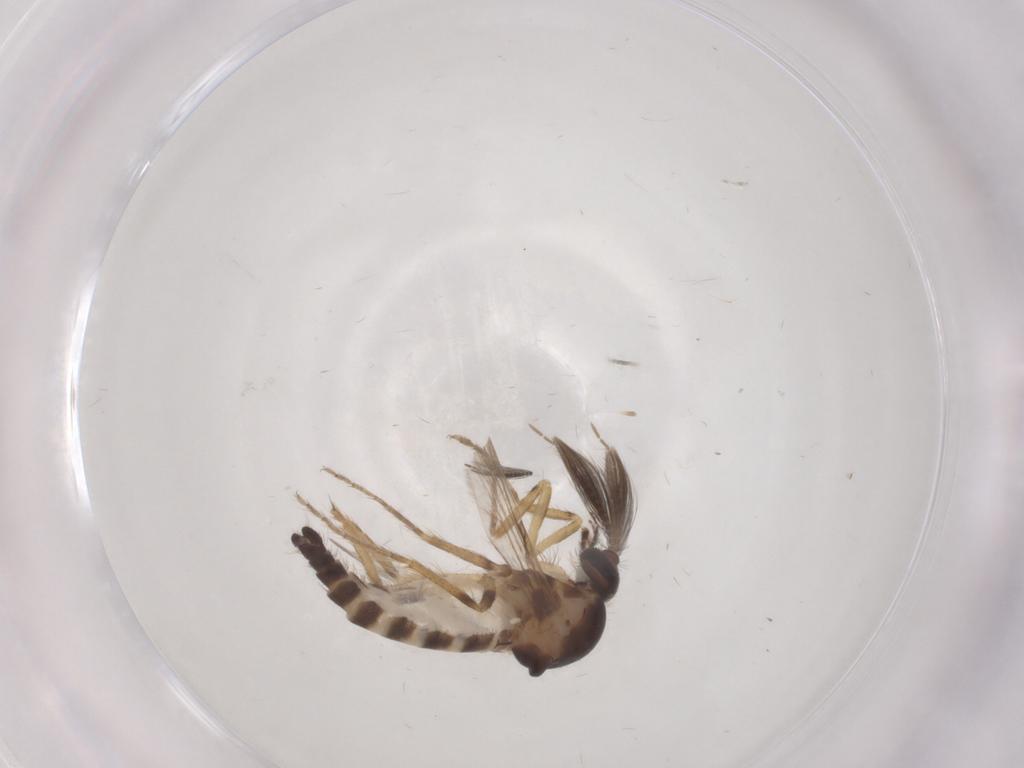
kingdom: Animalia
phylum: Arthropoda
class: Insecta
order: Diptera
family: Ceratopogonidae
